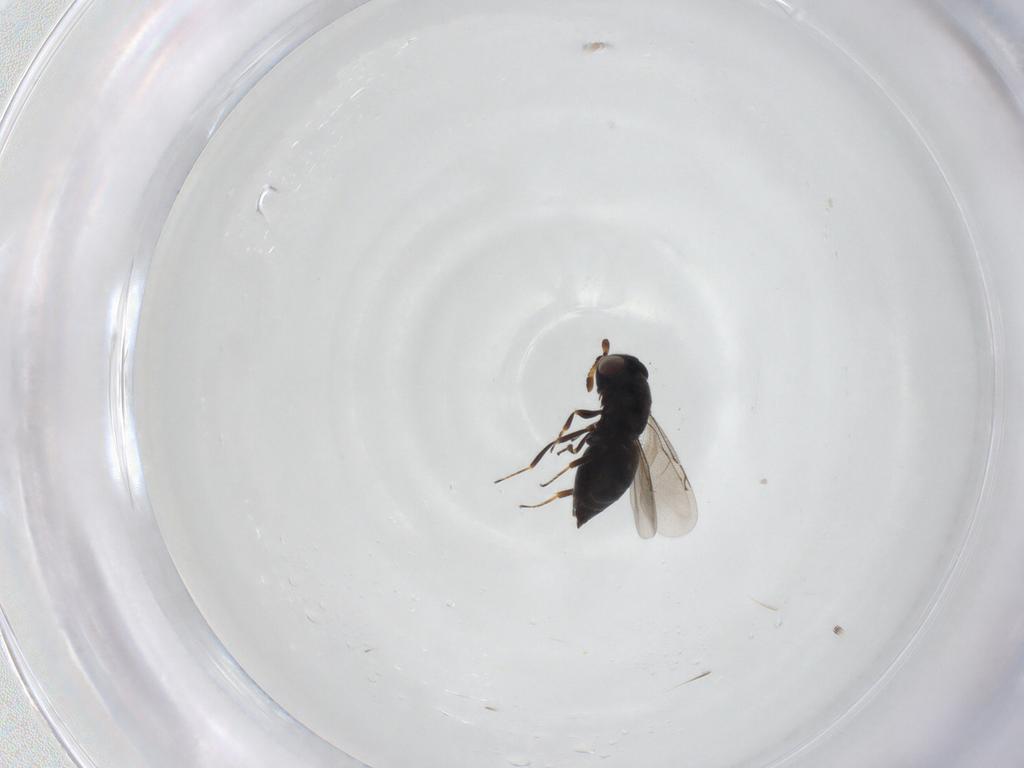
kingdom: Animalia
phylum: Arthropoda
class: Insecta
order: Hymenoptera
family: Eunotidae
